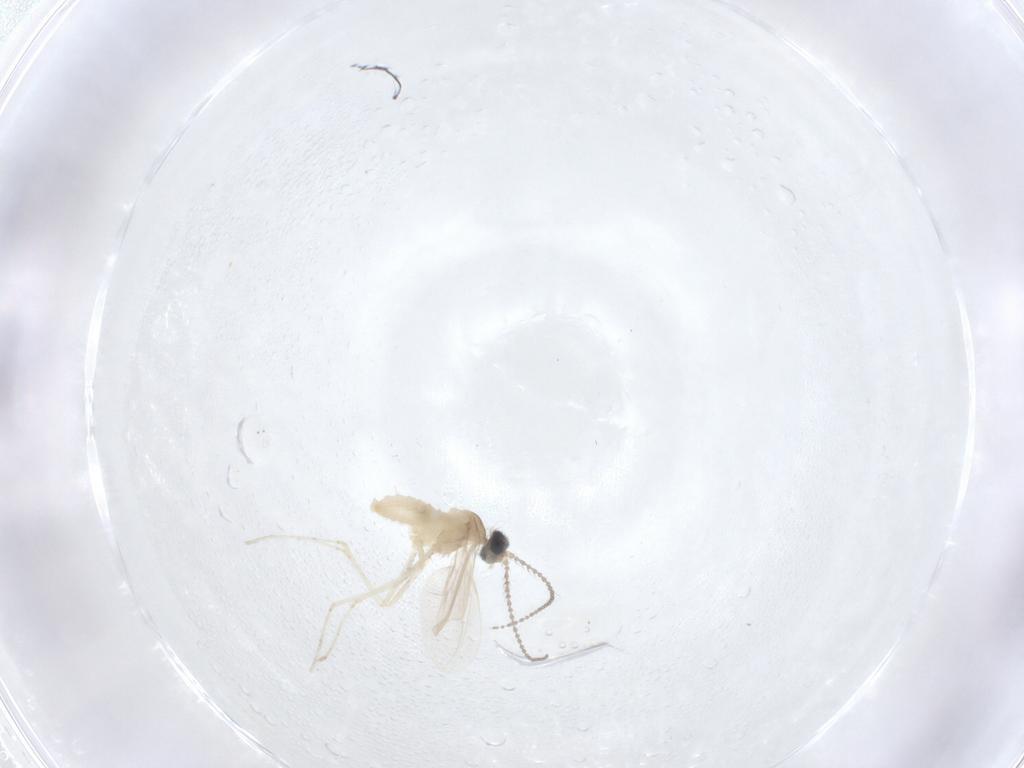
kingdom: Animalia
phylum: Arthropoda
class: Insecta
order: Diptera
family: Cecidomyiidae
